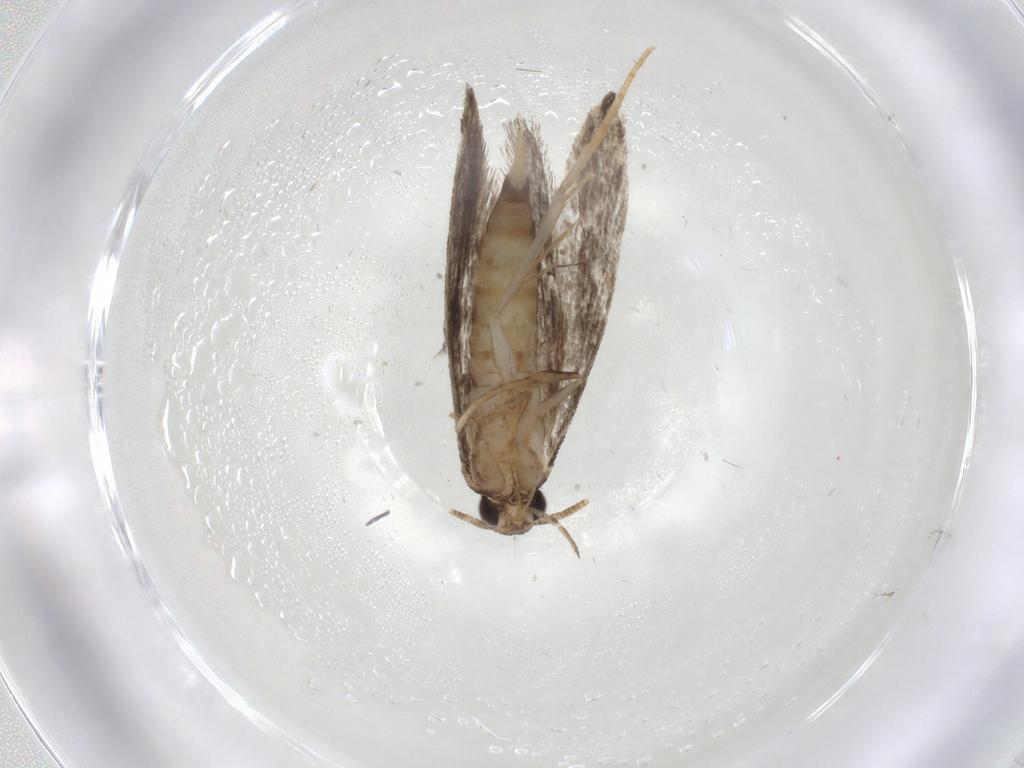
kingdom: Animalia
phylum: Arthropoda
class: Insecta
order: Lepidoptera
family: Tineidae
